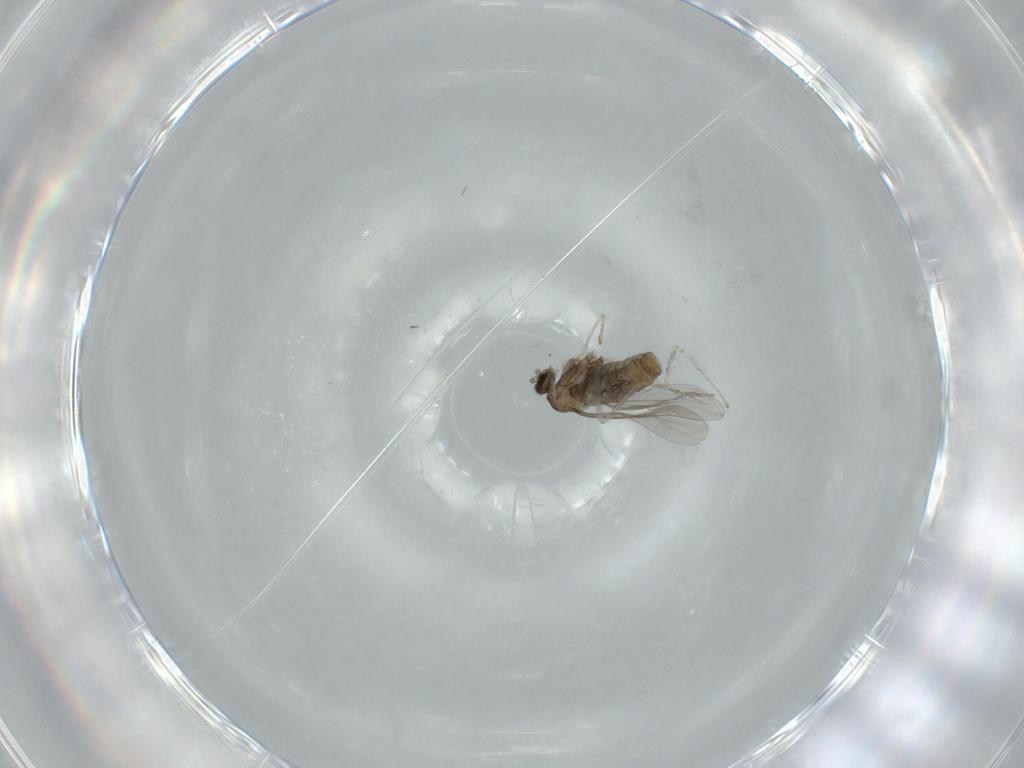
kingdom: Animalia
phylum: Arthropoda
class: Insecta
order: Diptera
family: Cecidomyiidae
